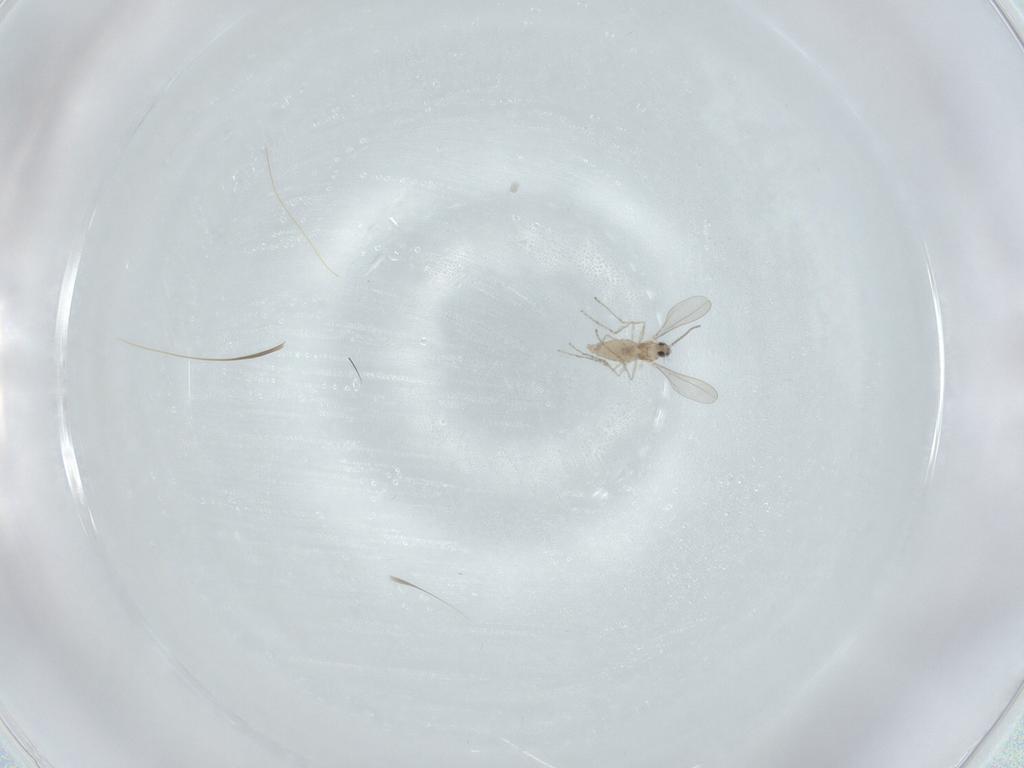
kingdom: Animalia
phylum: Arthropoda
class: Insecta
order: Diptera
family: Cecidomyiidae
